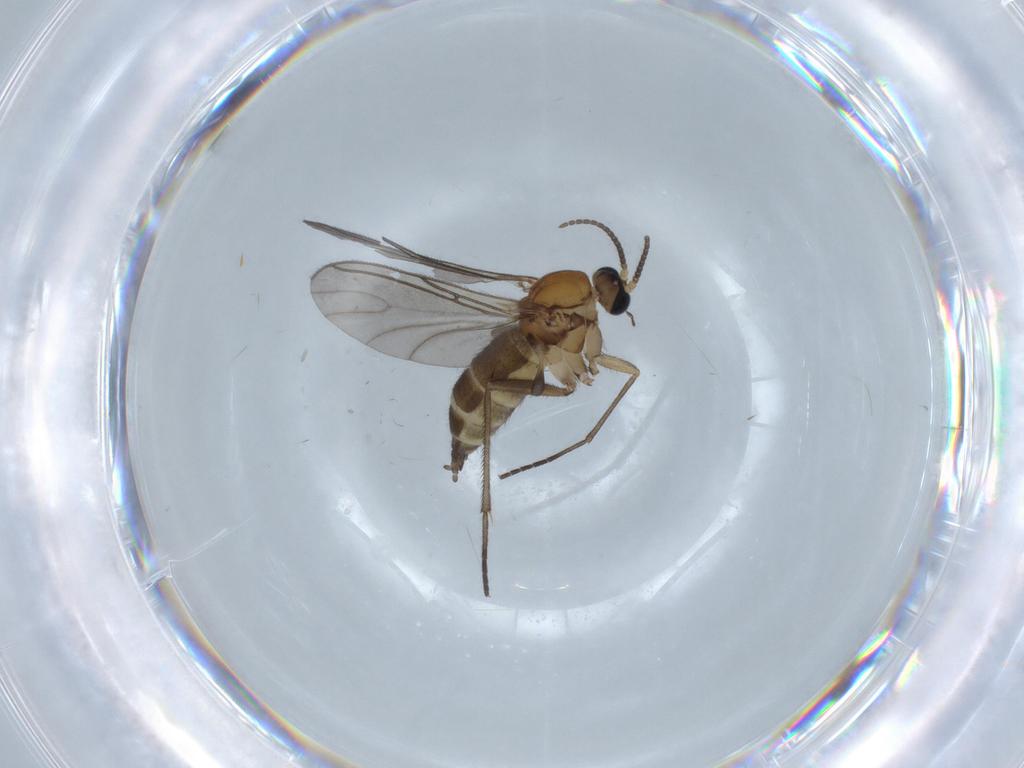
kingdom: Animalia
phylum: Arthropoda
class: Insecta
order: Diptera
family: Sciaridae
